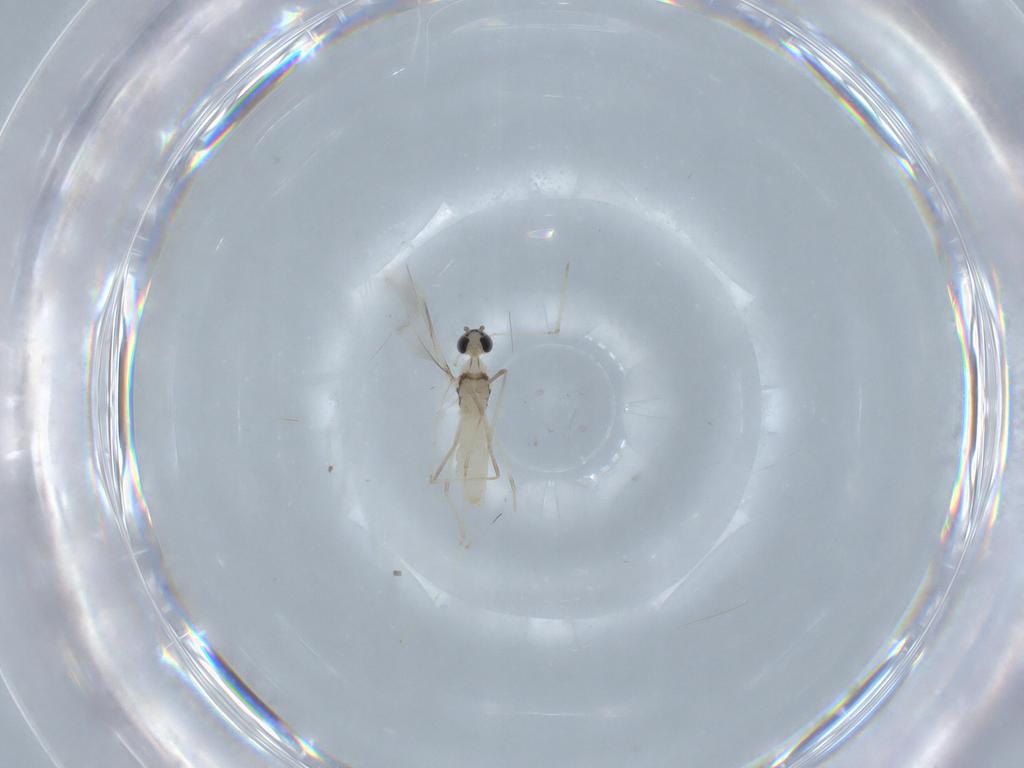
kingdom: Animalia
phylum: Arthropoda
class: Insecta
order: Diptera
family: Cecidomyiidae
